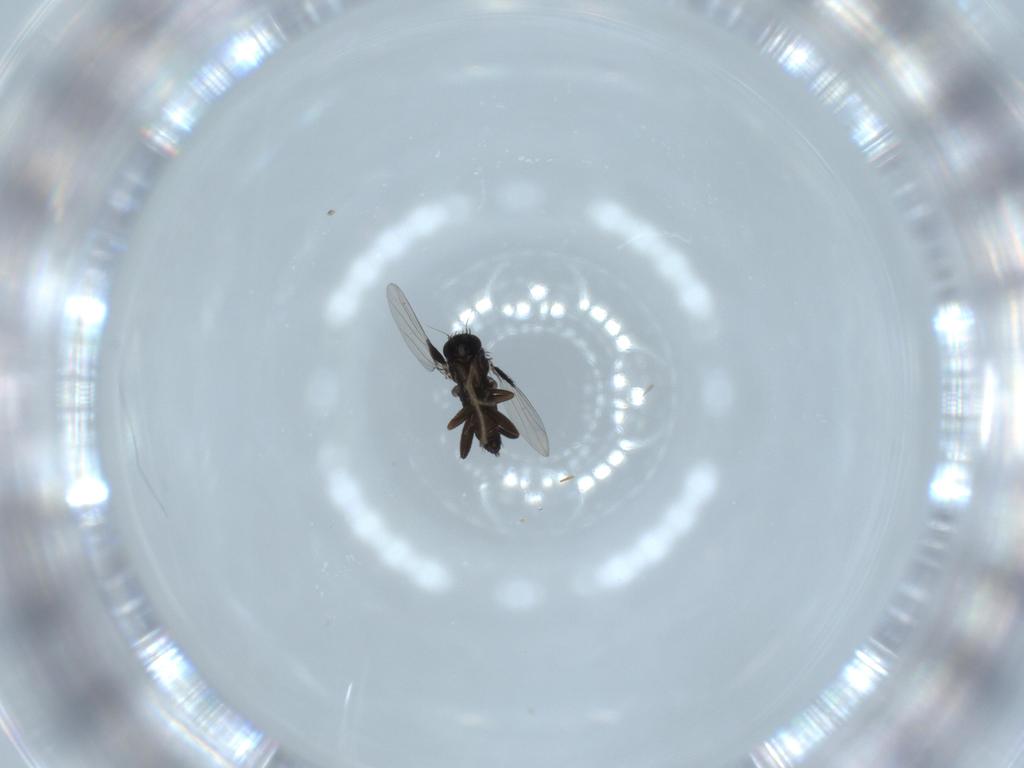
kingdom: Animalia
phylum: Arthropoda
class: Insecta
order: Diptera
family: Phoridae
